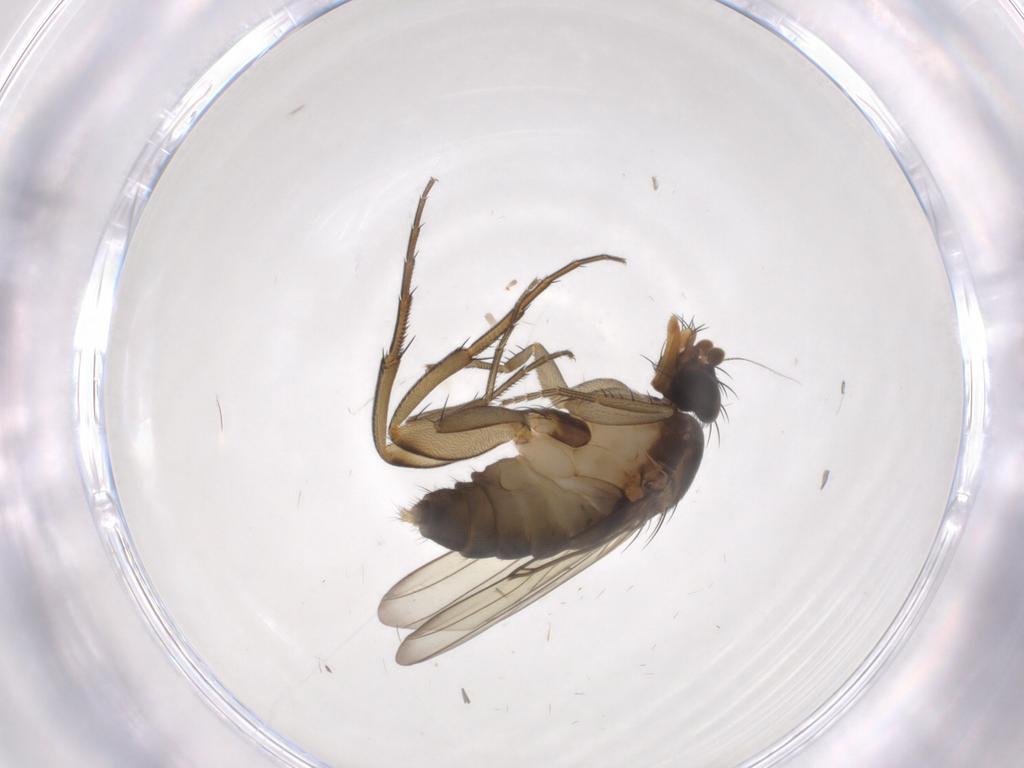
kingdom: Animalia
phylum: Arthropoda
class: Insecta
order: Diptera
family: Phoridae
